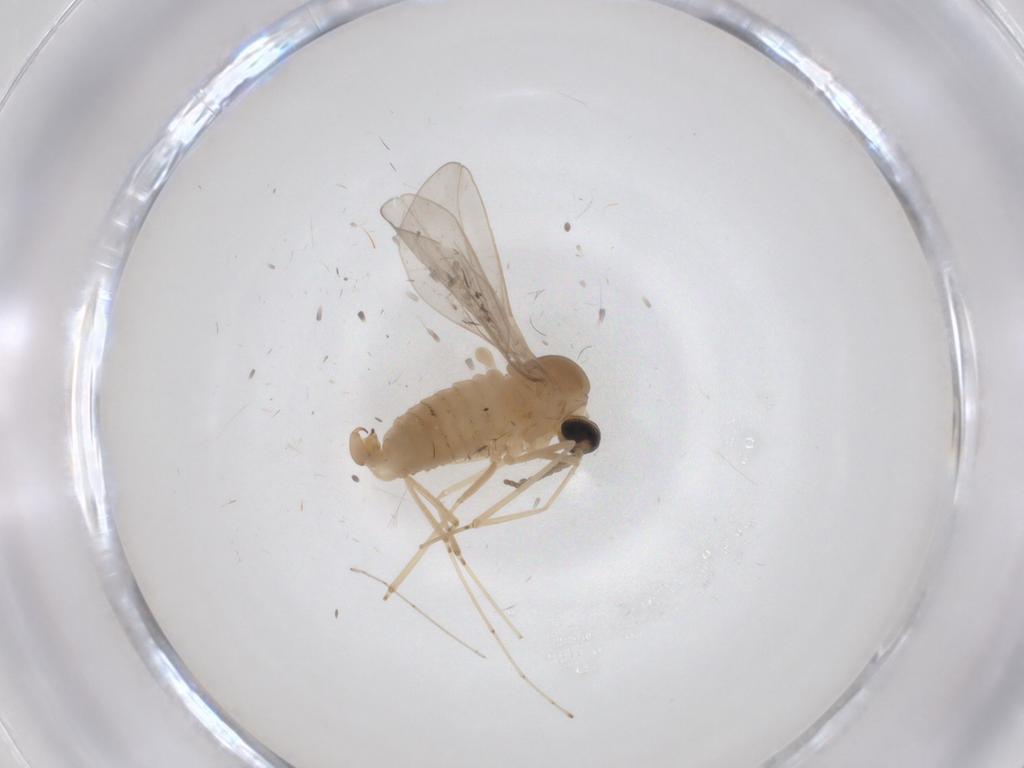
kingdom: Animalia
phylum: Arthropoda
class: Insecta
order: Diptera
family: Cecidomyiidae
